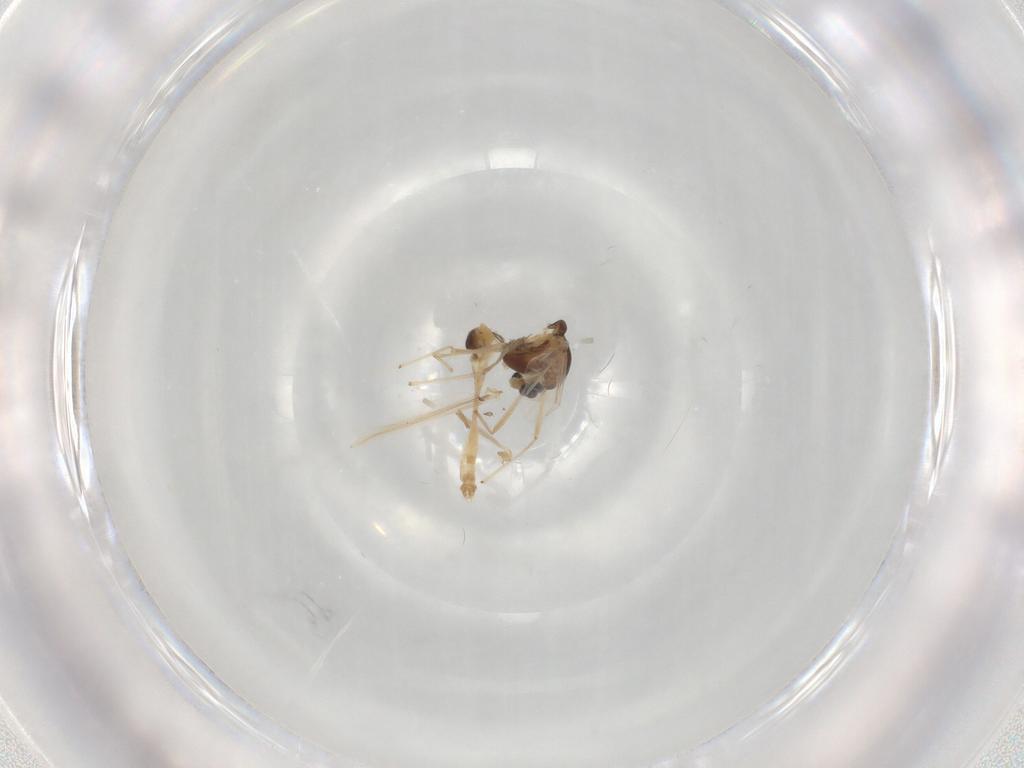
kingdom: Animalia
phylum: Arthropoda
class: Insecta
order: Diptera
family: Chironomidae
